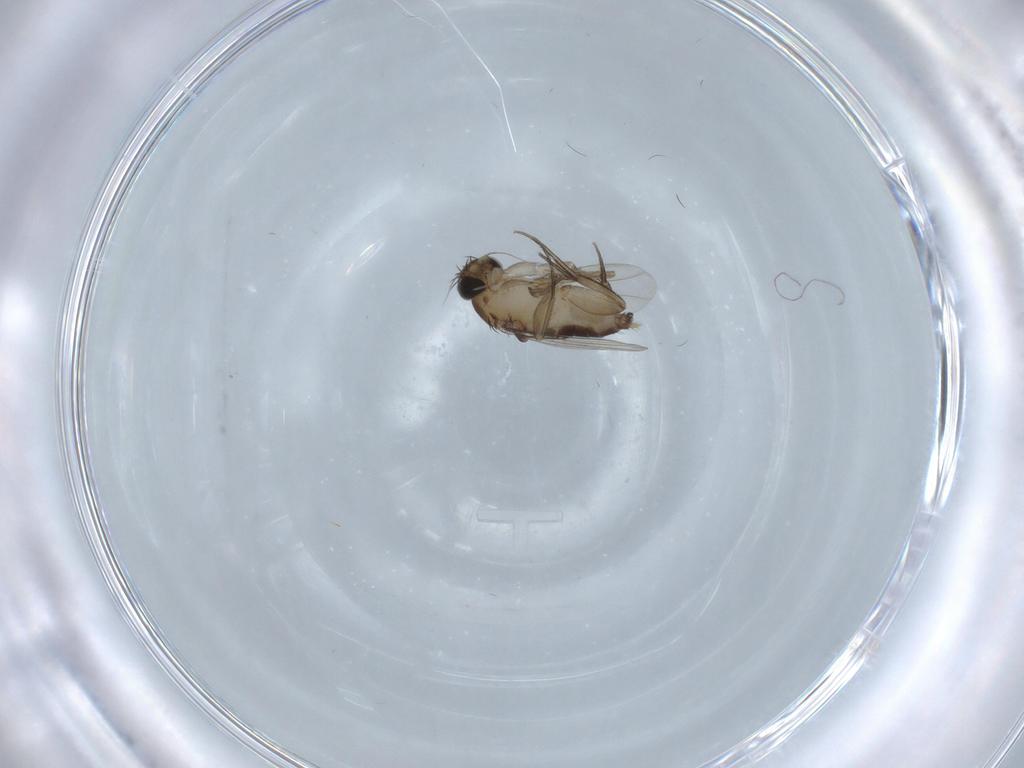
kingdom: Animalia
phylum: Arthropoda
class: Insecta
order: Diptera
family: Phoridae
